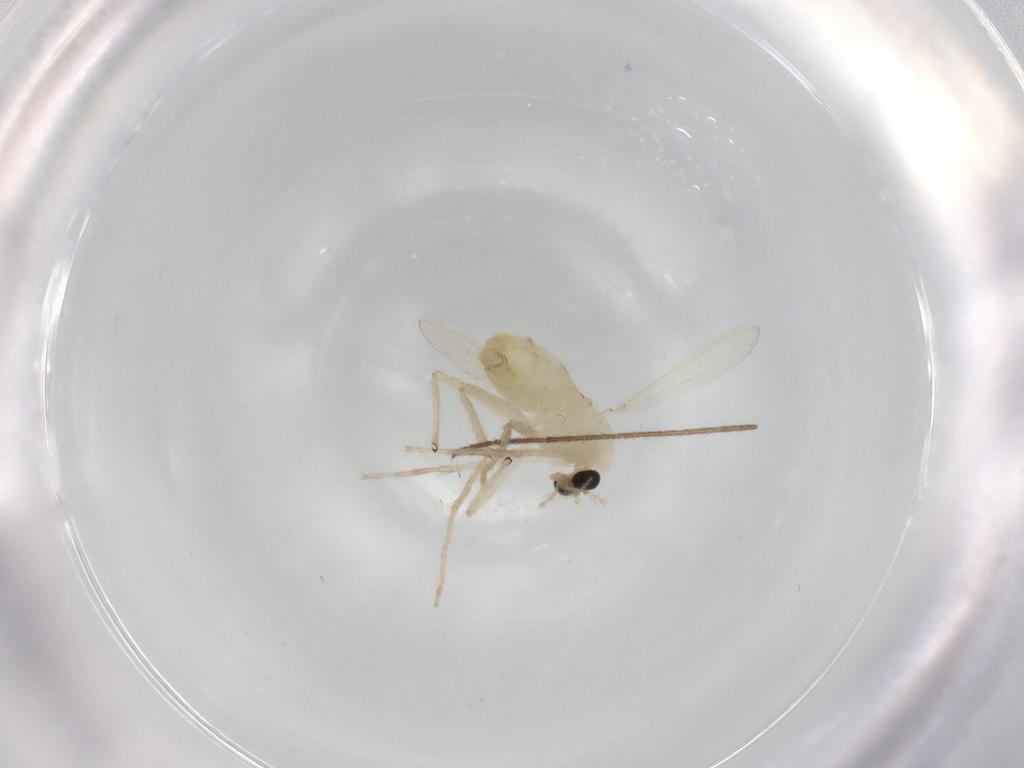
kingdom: Animalia
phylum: Arthropoda
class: Insecta
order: Diptera
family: Chironomidae
